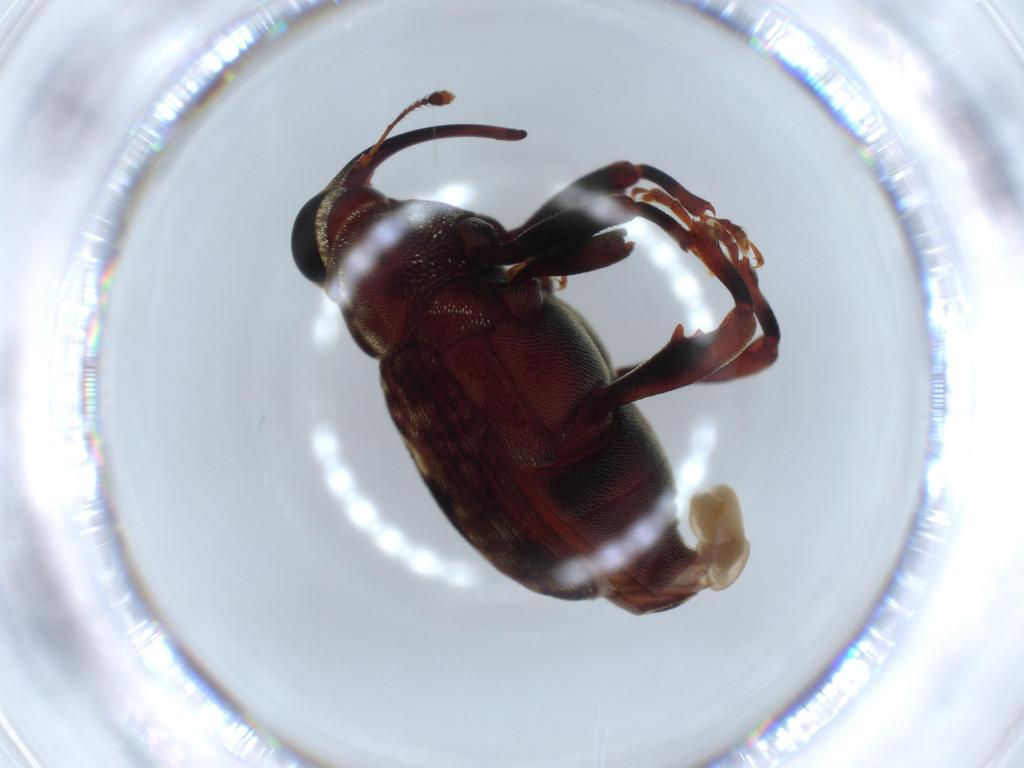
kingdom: Animalia
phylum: Arthropoda
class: Insecta
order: Coleoptera
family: Curculionidae
